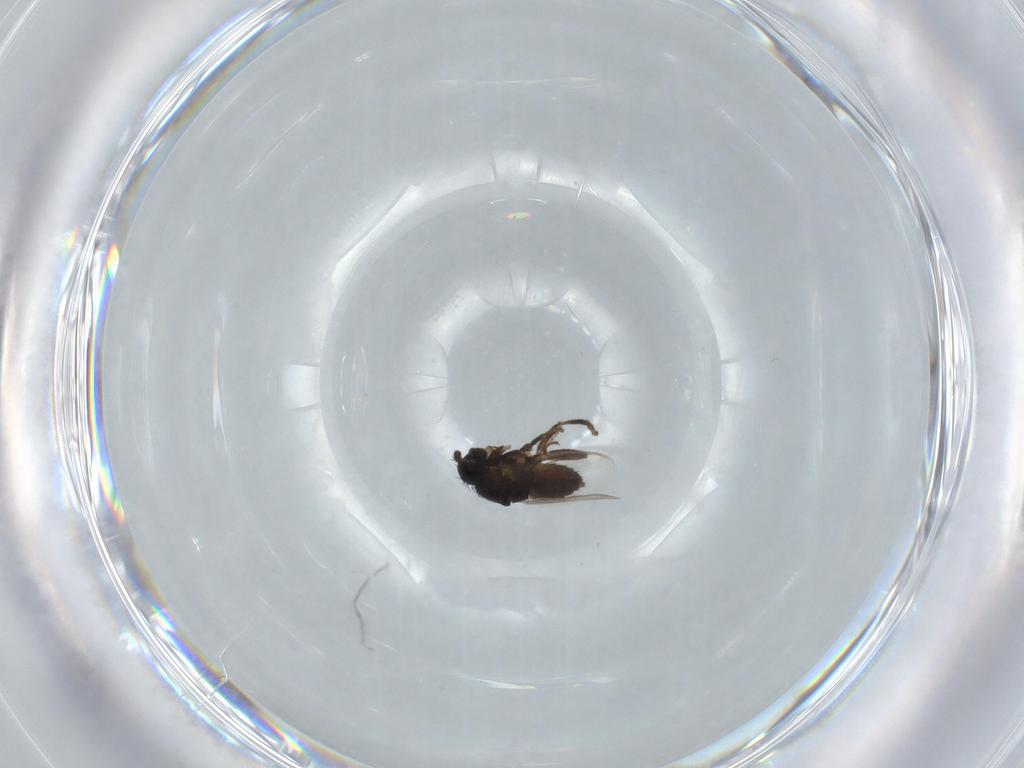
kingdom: Animalia
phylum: Arthropoda
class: Insecta
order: Diptera
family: Sphaeroceridae
